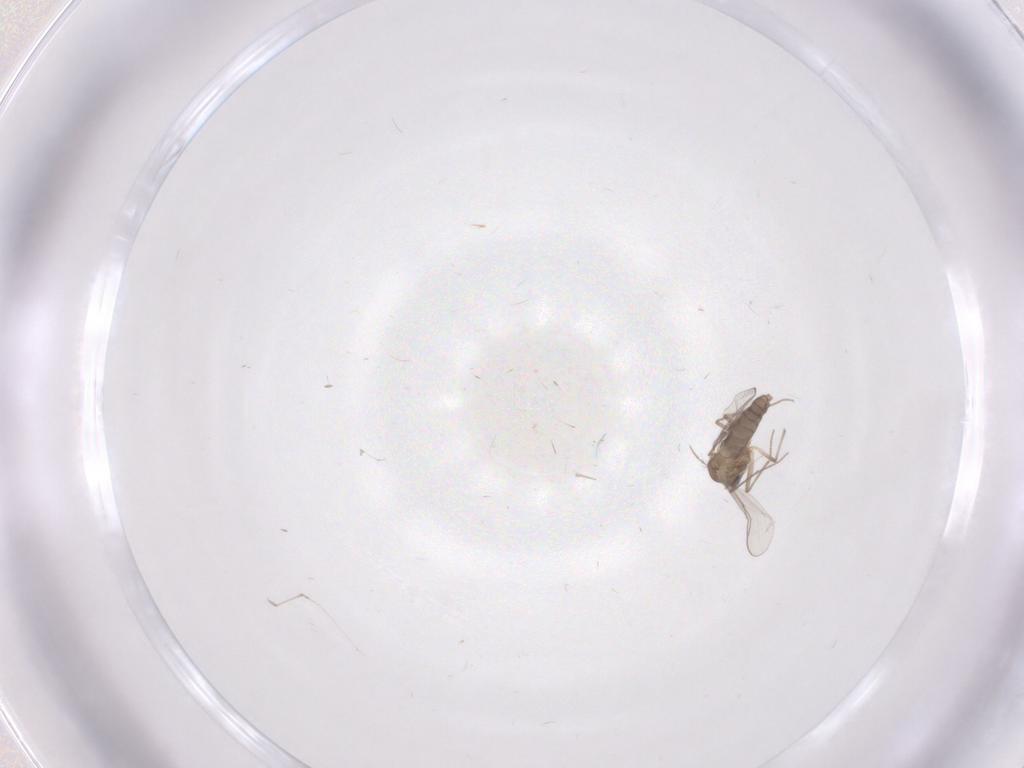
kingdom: Animalia
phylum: Arthropoda
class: Insecta
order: Diptera
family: Chironomidae
